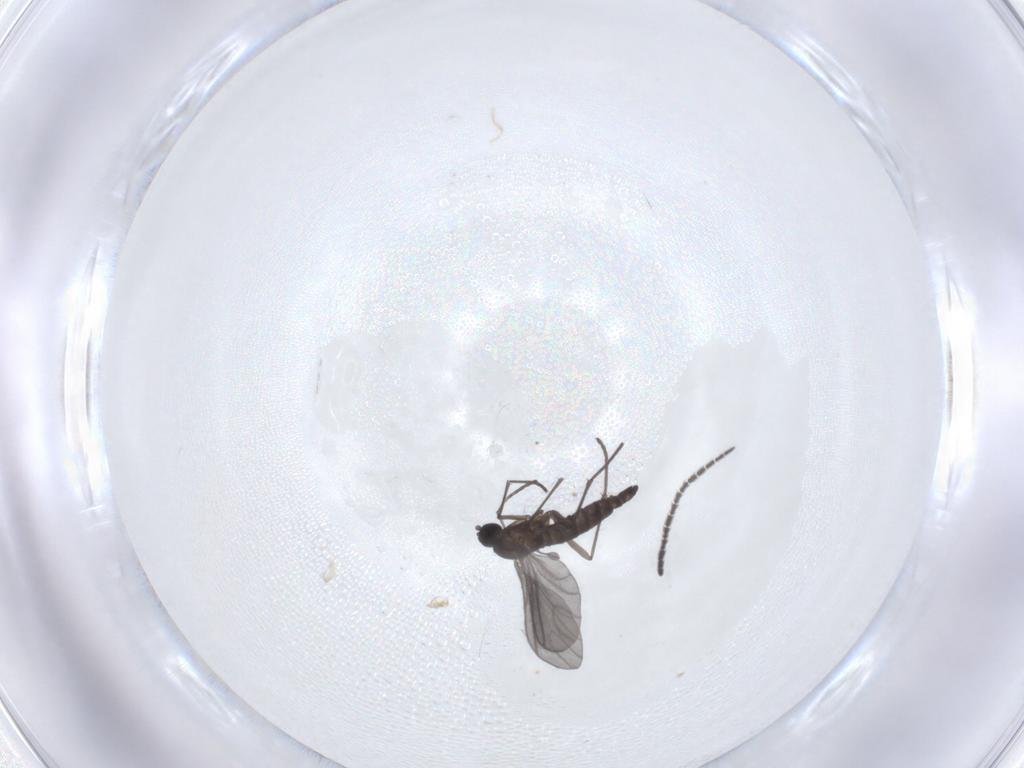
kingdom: Animalia
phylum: Arthropoda
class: Insecta
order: Diptera
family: Sciaridae
